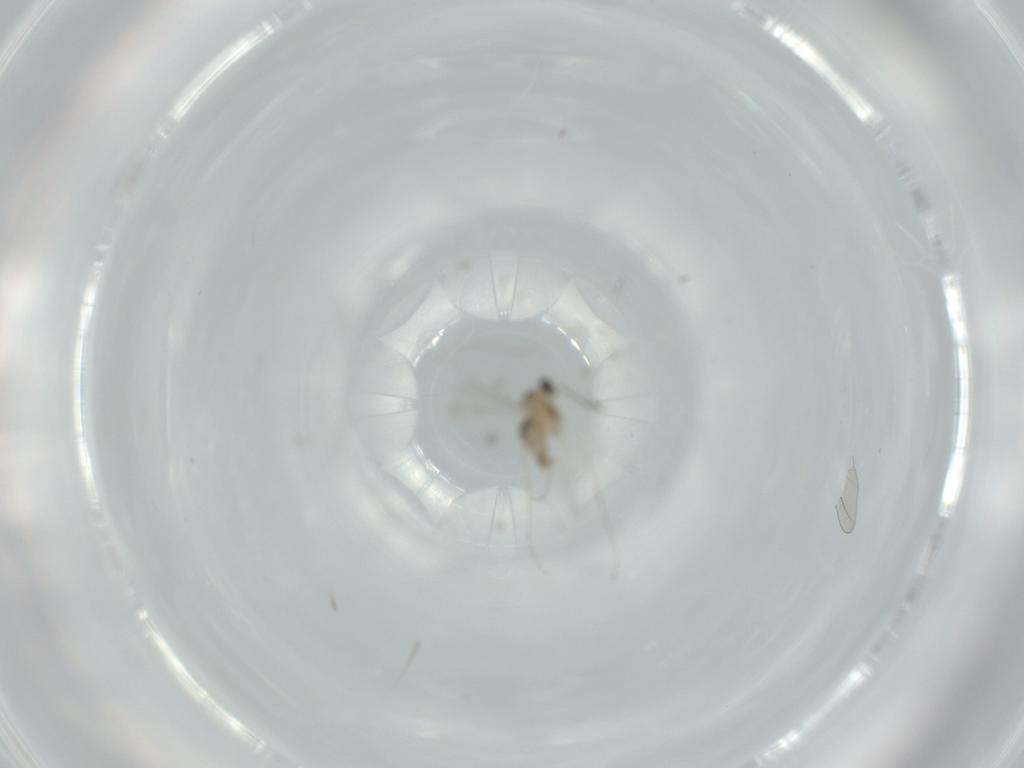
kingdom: Animalia
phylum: Arthropoda
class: Insecta
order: Diptera
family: Cecidomyiidae
